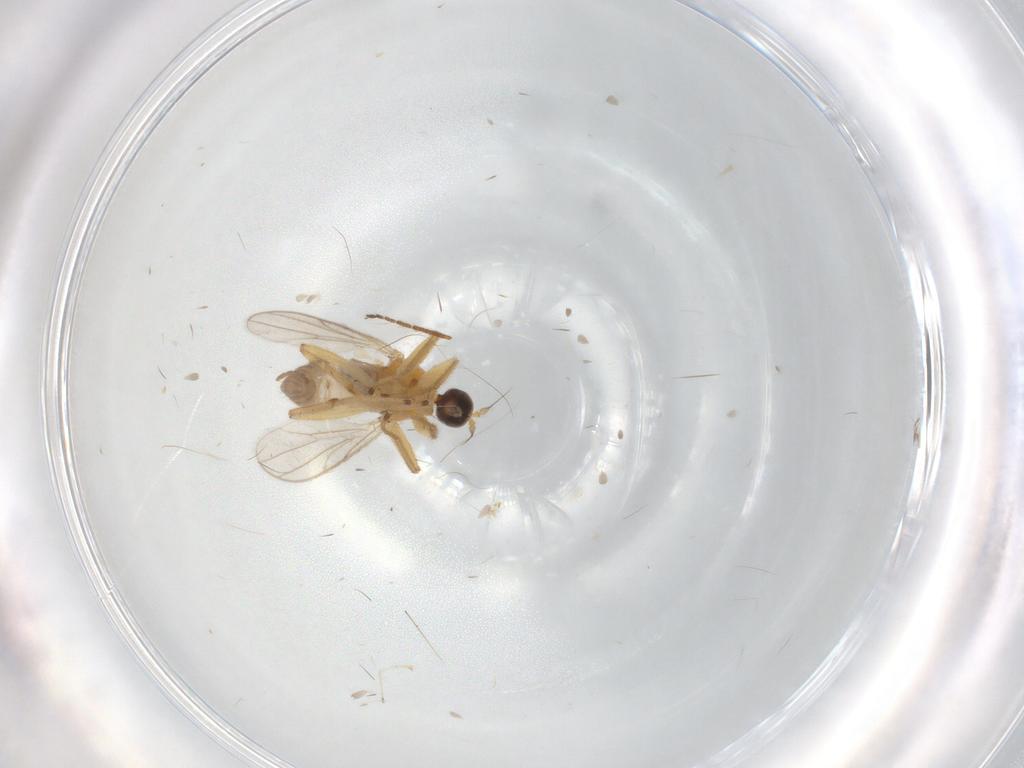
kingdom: Animalia
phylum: Arthropoda
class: Insecta
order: Diptera
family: Hybotidae
